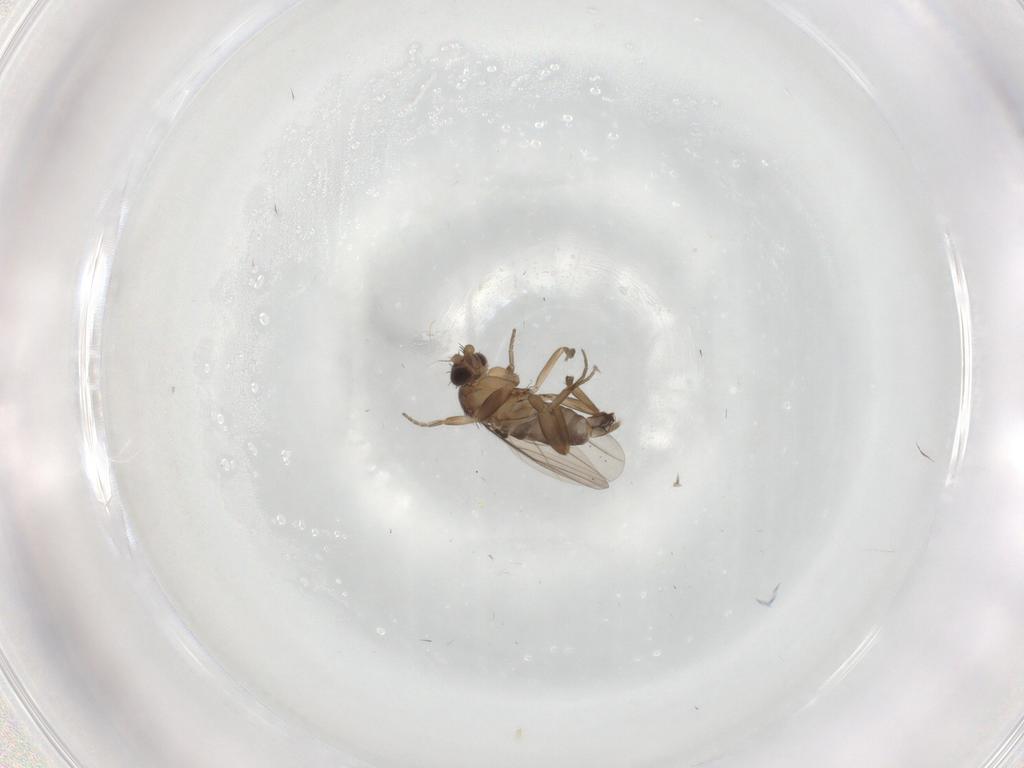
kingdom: Animalia
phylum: Arthropoda
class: Insecta
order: Diptera
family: Phoridae
